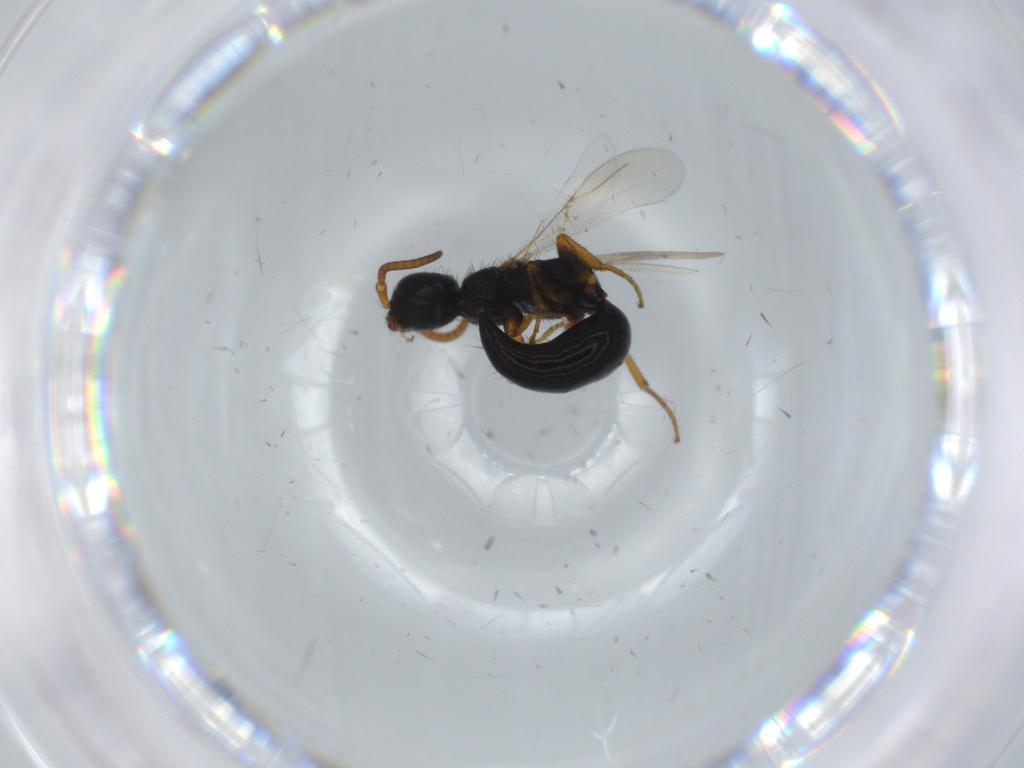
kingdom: Animalia
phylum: Arthropoda
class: Insecta
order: Hymenoptera
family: Bethylidae
